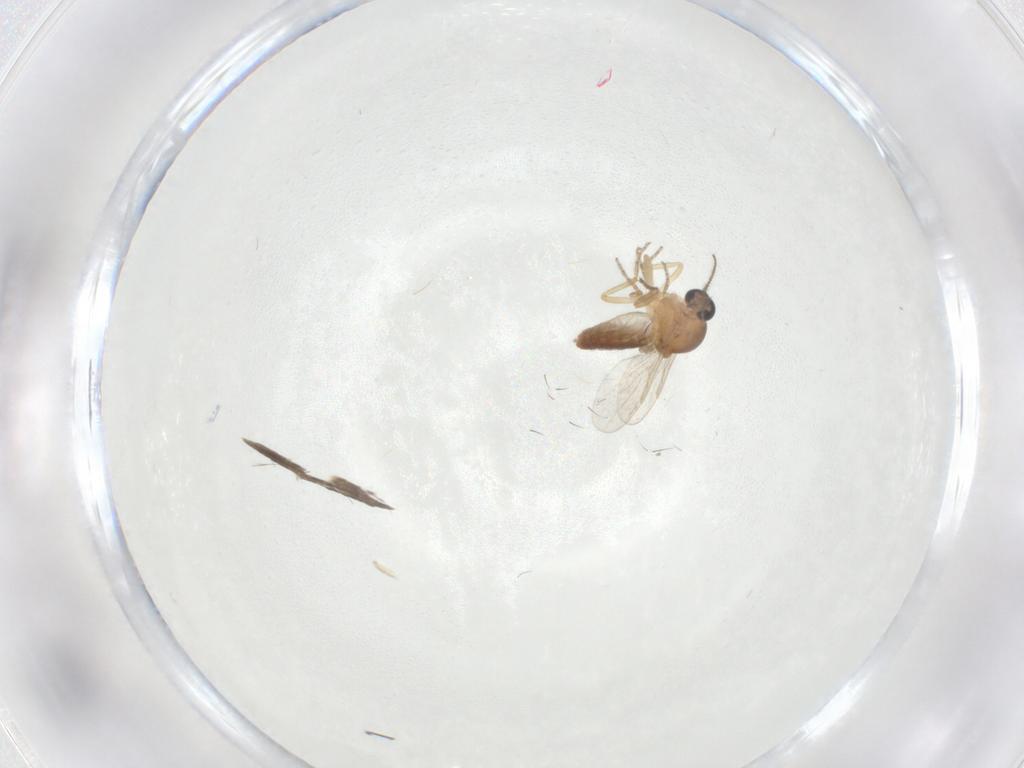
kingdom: Animalia
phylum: Arthropoda
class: Insecta
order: Diptera
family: Ceratopogonidae
